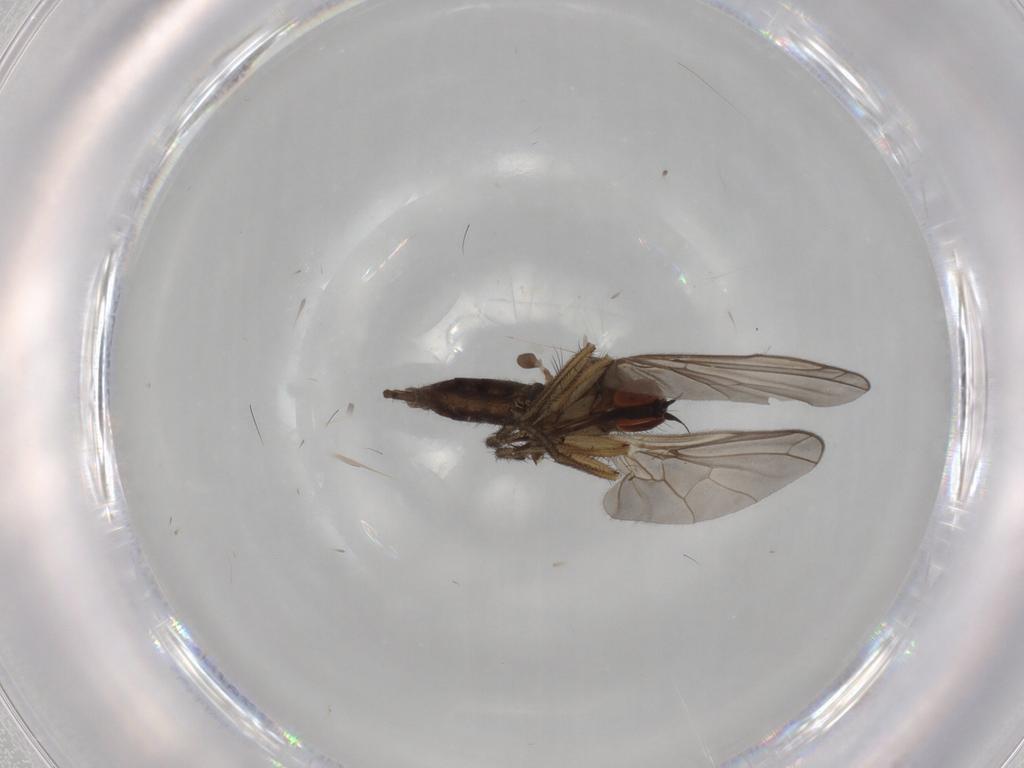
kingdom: Animalia
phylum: Arthropoda
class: Insecta
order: Diptera
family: Empididae
